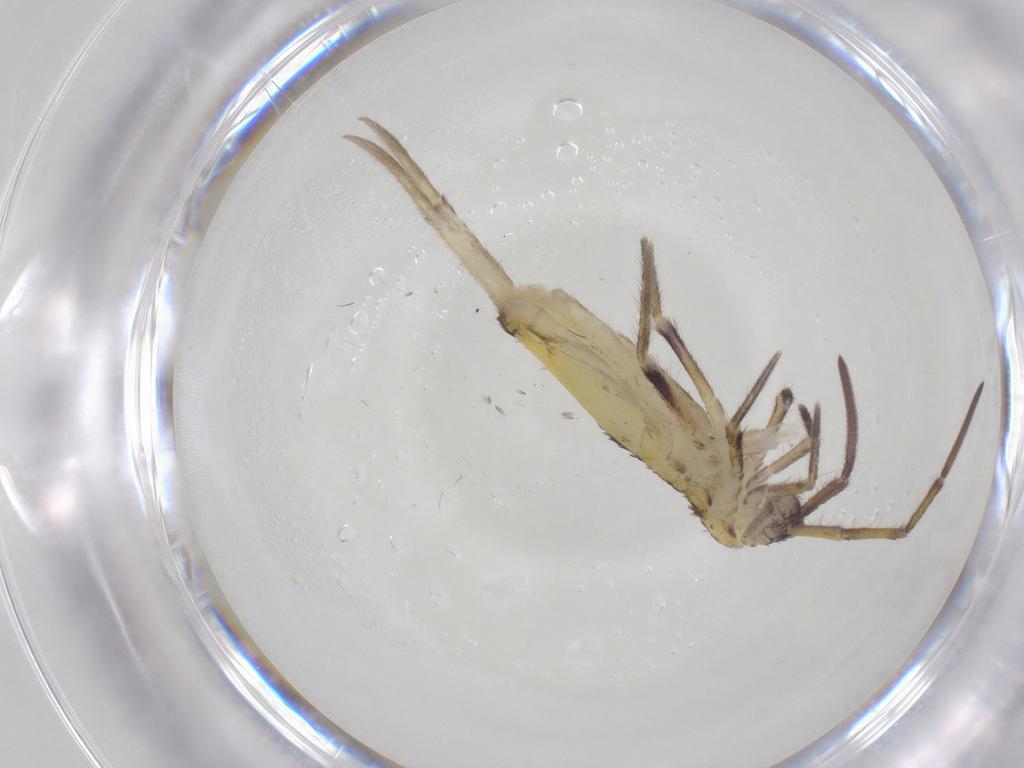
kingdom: Animalia
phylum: Arthropoda
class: Collembola
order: Entomobryomorpha
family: Entomobryidae
